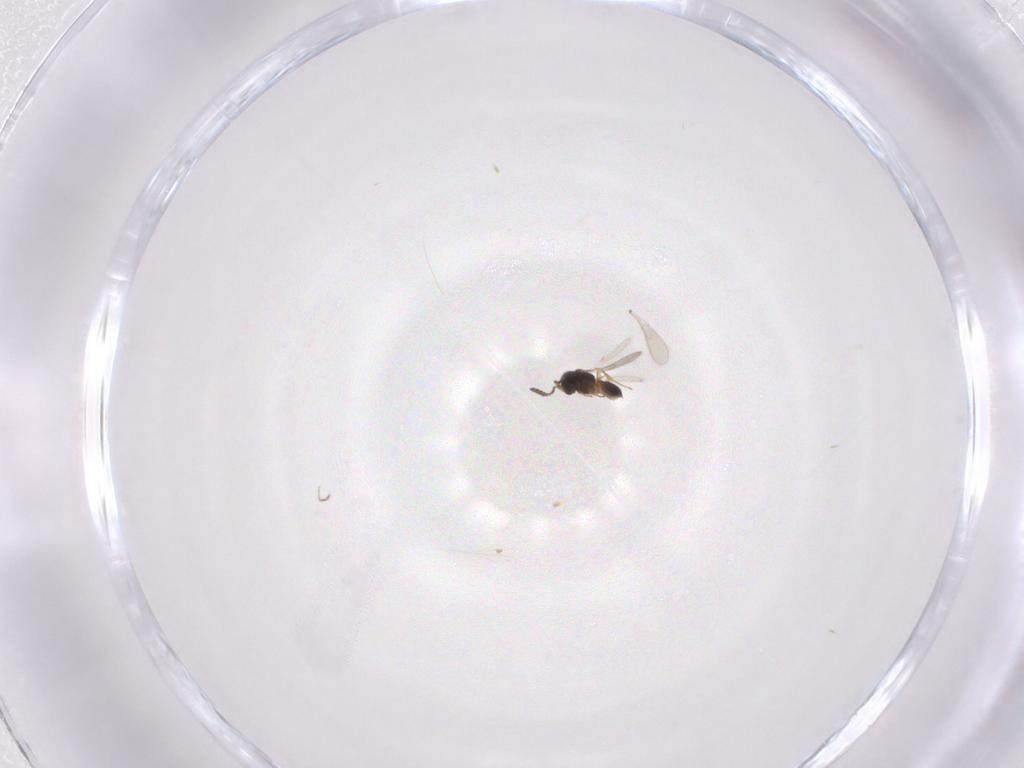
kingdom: Animalia
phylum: Arthropoda
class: Insecta
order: Hymenoptera
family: Scelionidae
